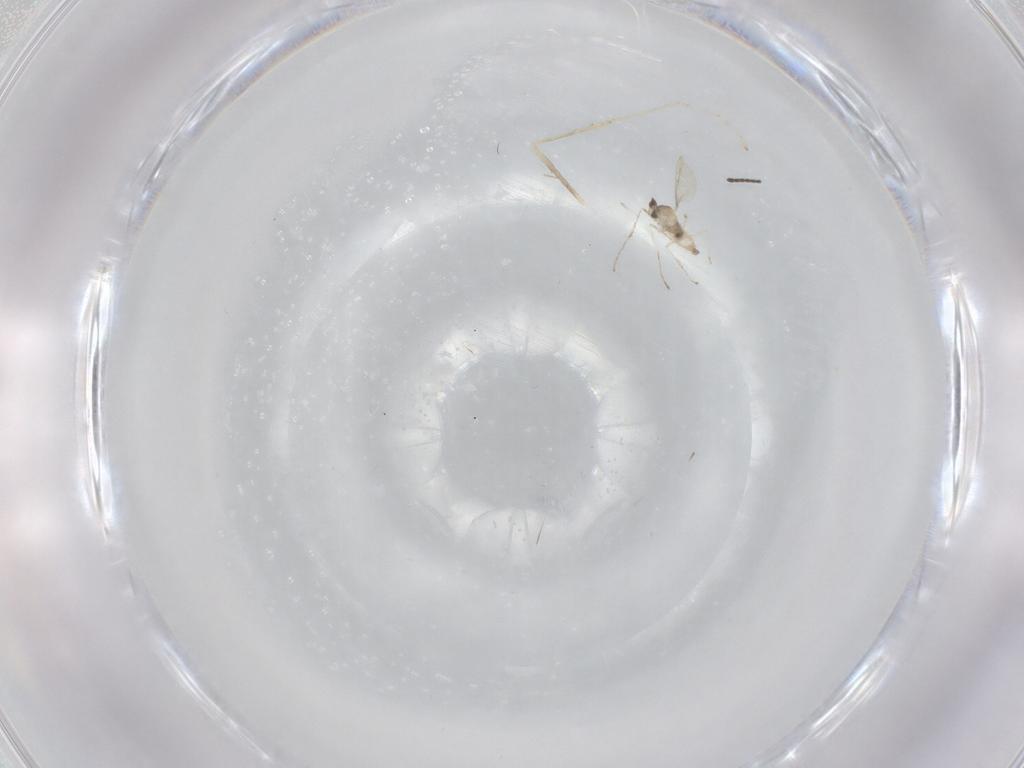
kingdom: Animalia
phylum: Arthropoda
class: Insecta
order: Diptera
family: Cecidomyiidae
